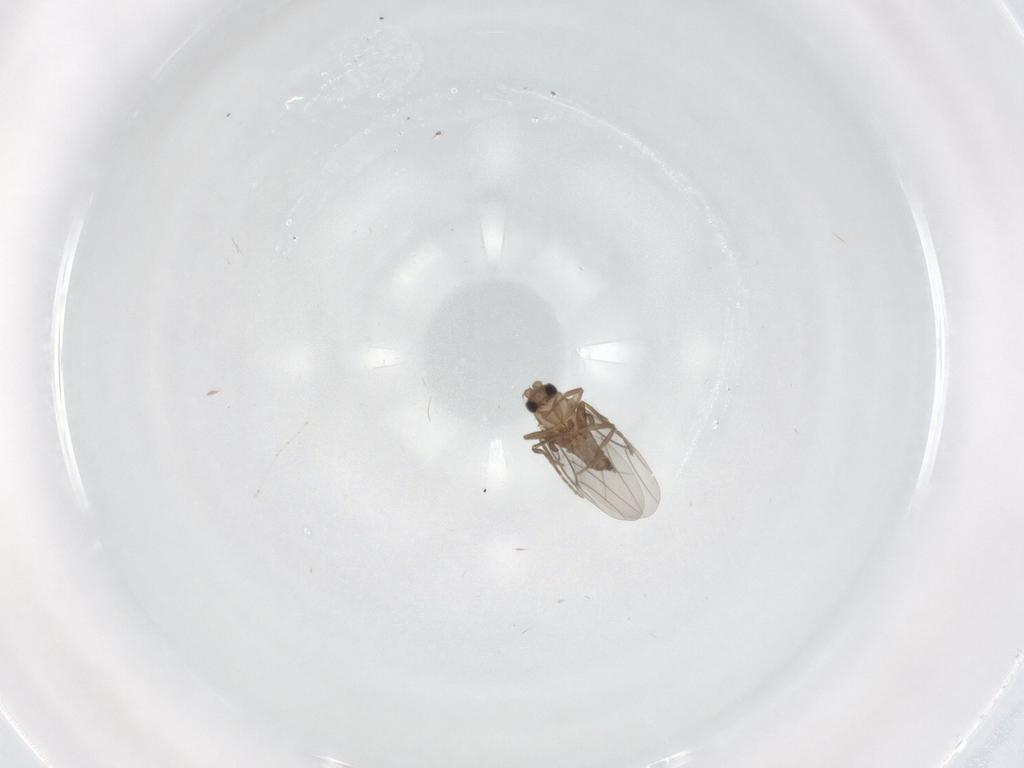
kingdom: Animalia
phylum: Arthropoda
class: Insecta
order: Diptera
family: Cecidomyiidae
